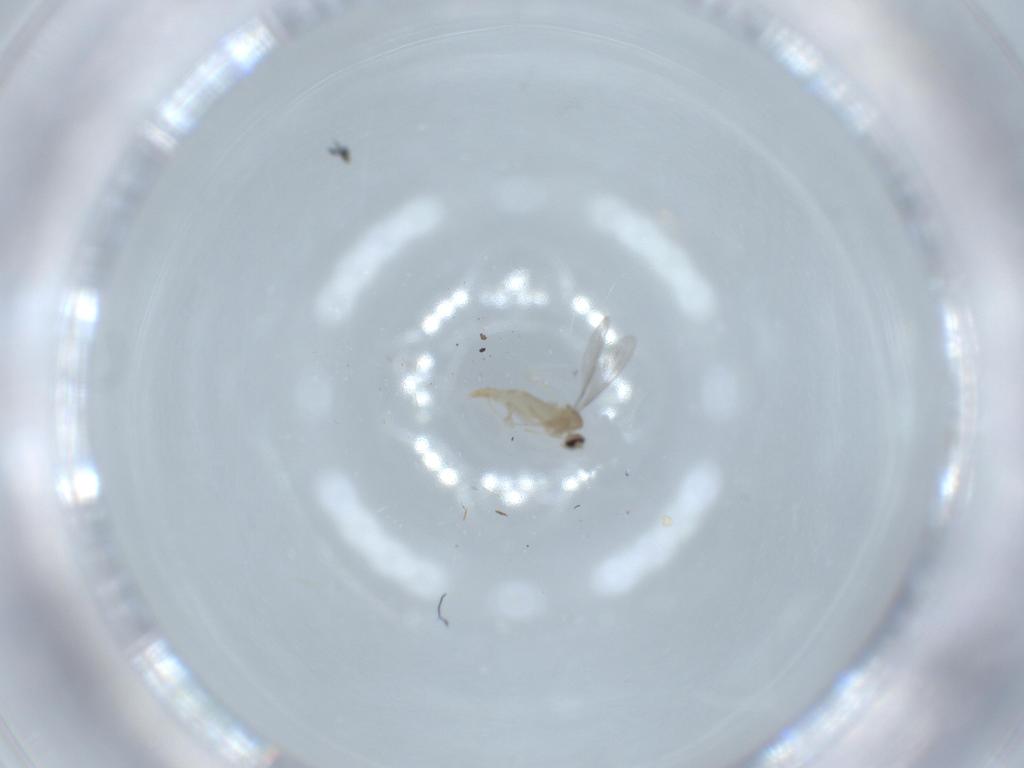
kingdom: Animalia
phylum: Arthropoda
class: Insecta
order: Diptera
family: Cecidomyiidae
